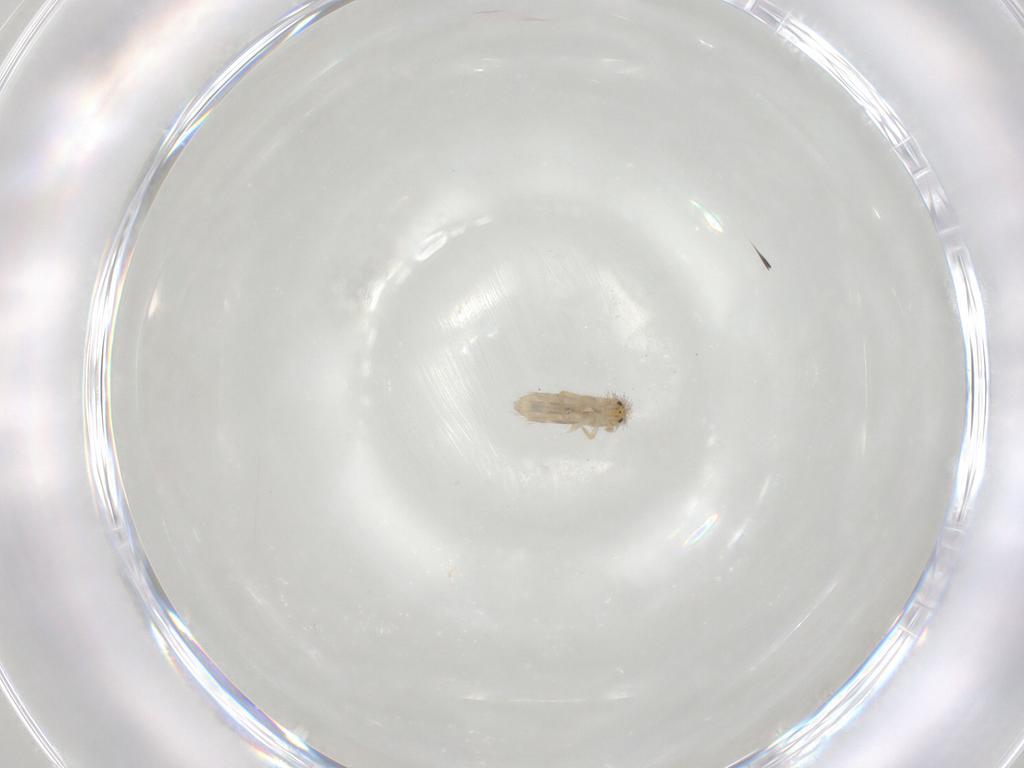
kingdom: Animalia
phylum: Arthropoda
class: Collembola
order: Entomobryomorpha
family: Entomobryidae
